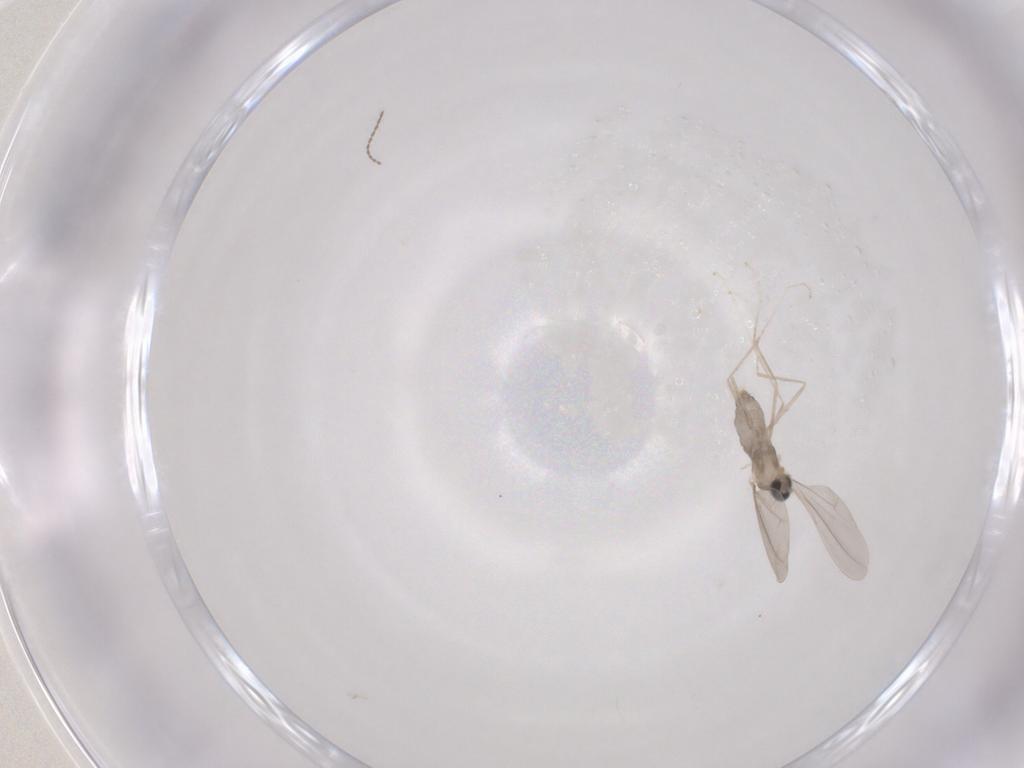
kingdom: Animalia
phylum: Arthropoda
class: Insecta
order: Diptera
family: Cecidomyiidae
